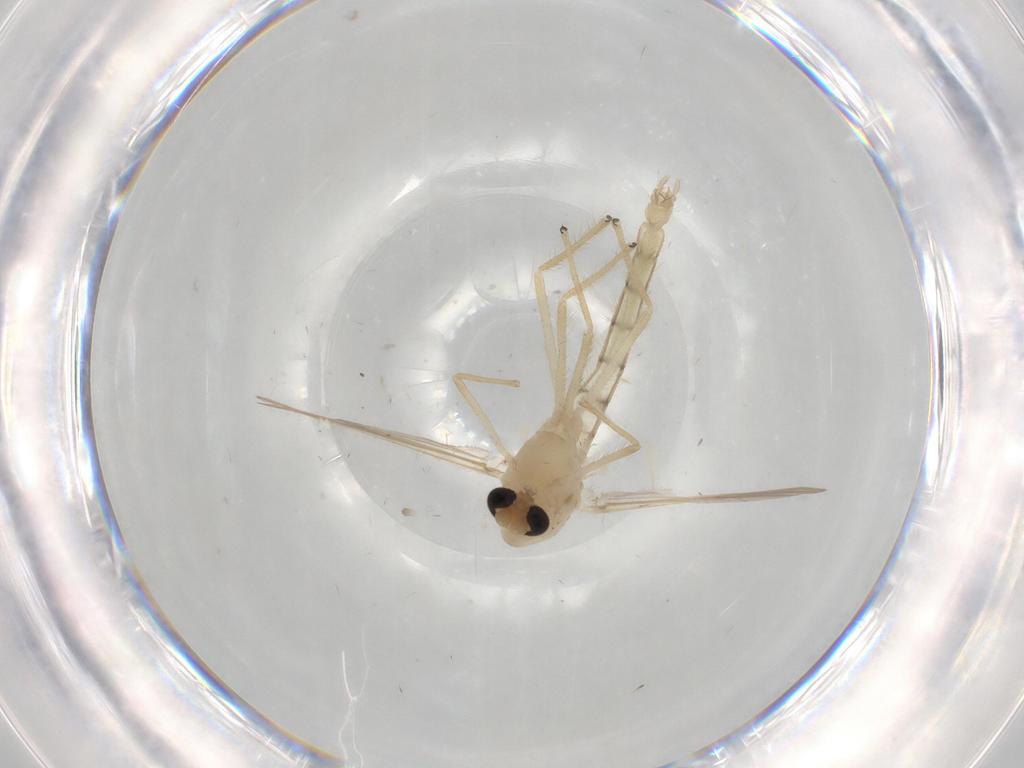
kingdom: Animalia
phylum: Arthropoda
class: Insecta
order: Diptera
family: Chironomidae
